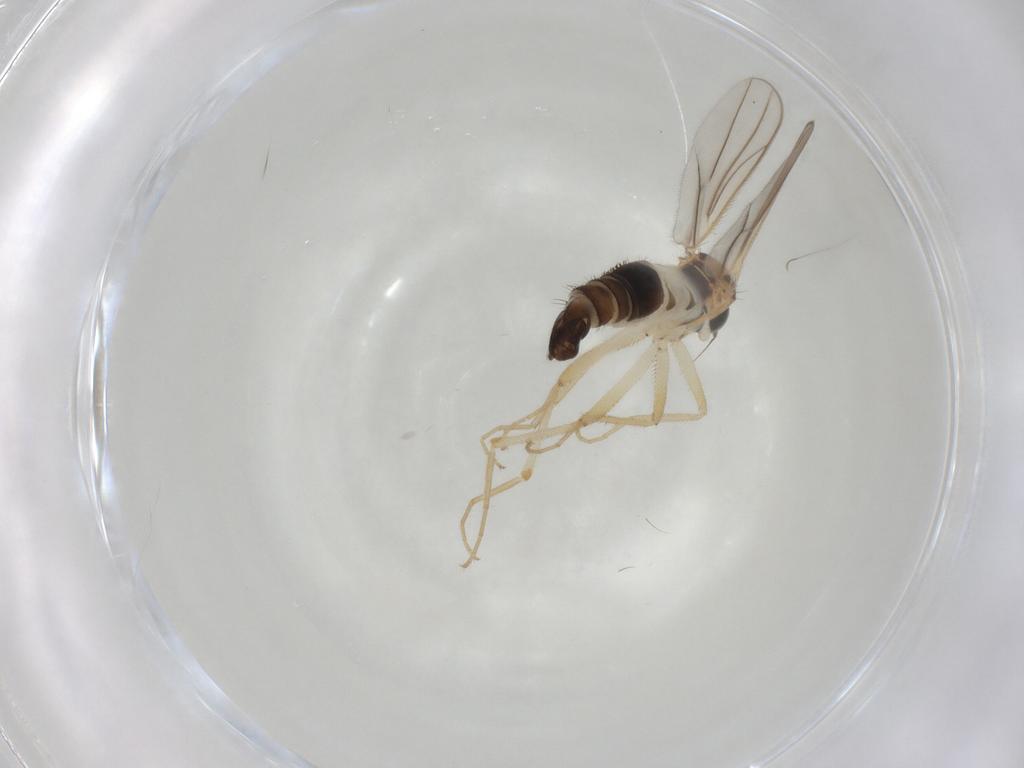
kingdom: Animalia
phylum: Arthropoda
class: Insecta
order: Diptera
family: Hybotidae
